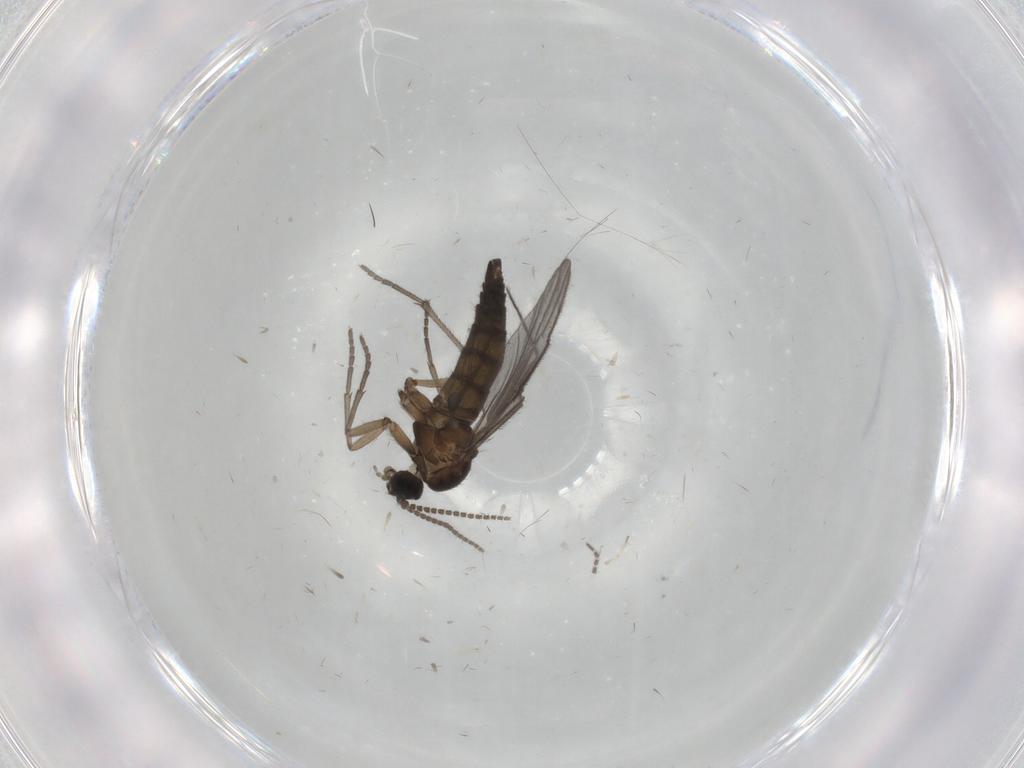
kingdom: Animalia
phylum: Arthropoda
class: Insecta
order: Diptera
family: Sciaridae
